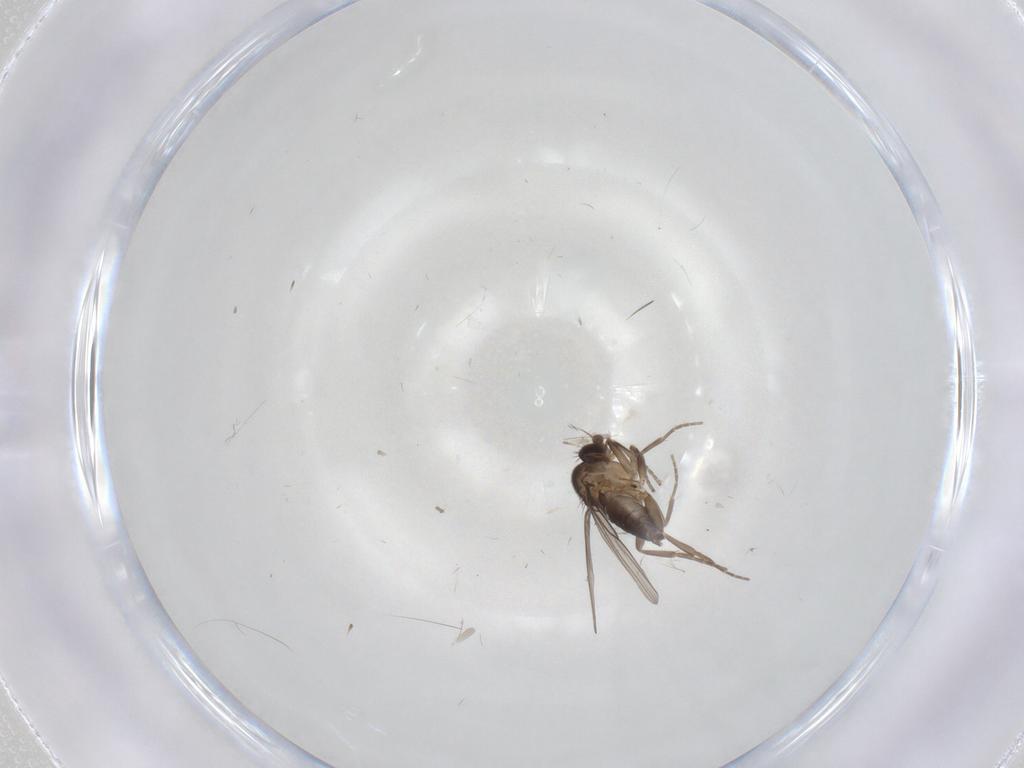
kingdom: Animalia
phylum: Arthropoda
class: Insecta
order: Diptera
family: Phoridae
